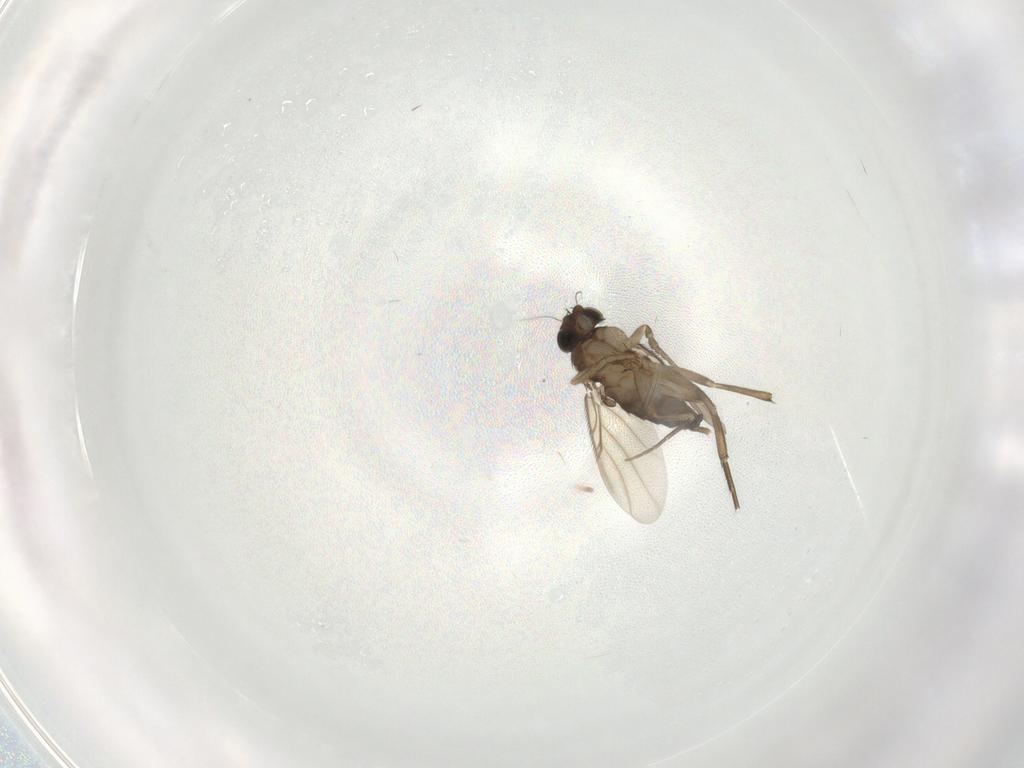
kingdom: Animalia
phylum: Arthropoda
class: Insecta
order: Diptera
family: Phoridae
